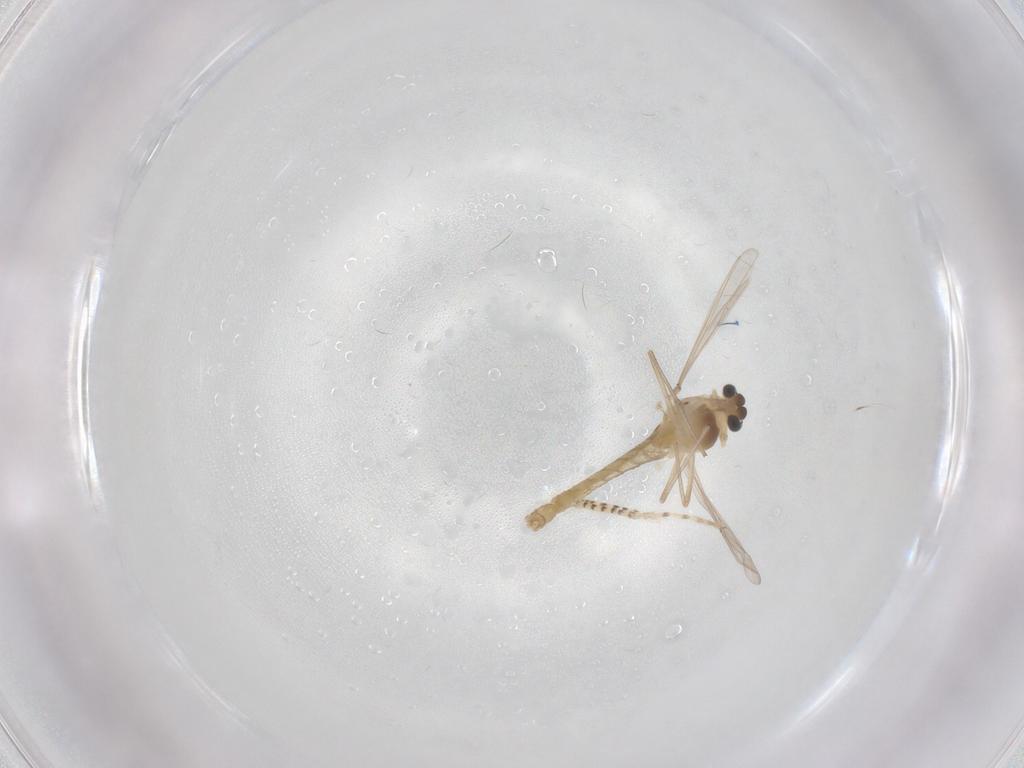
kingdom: Animalia
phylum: Arthropoda
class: Insecta
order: Diptera
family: Chaoboridae
